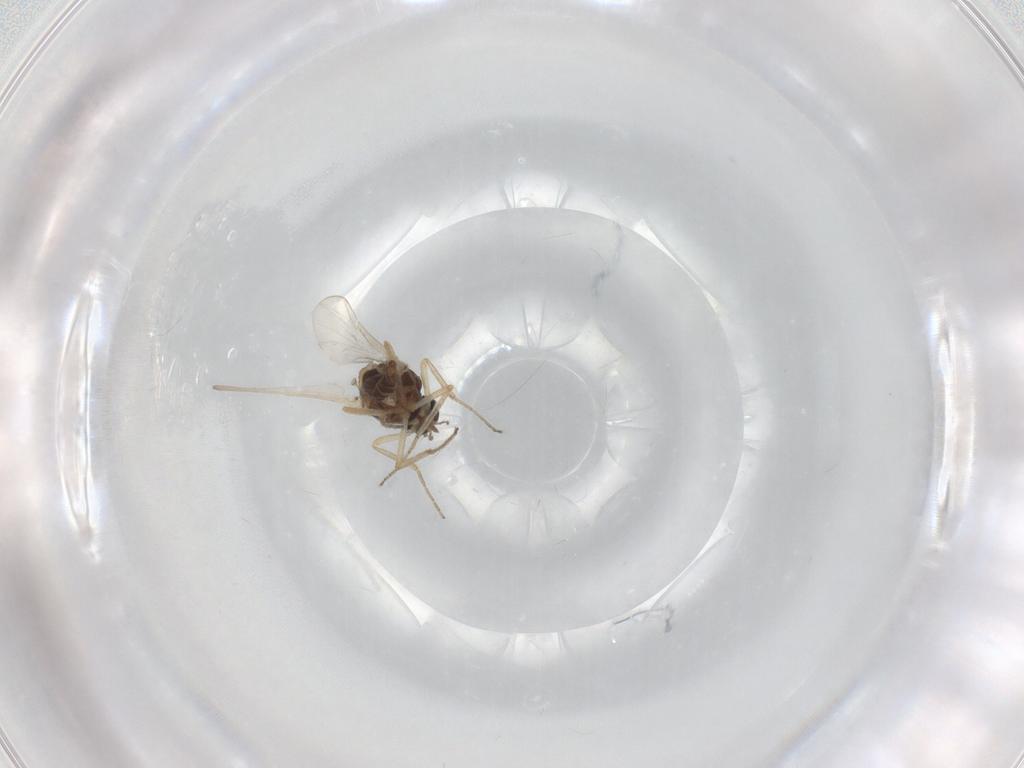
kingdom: Animalia
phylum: Arthropoda
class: Insecta
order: Diptera
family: Ceratopogonidae
